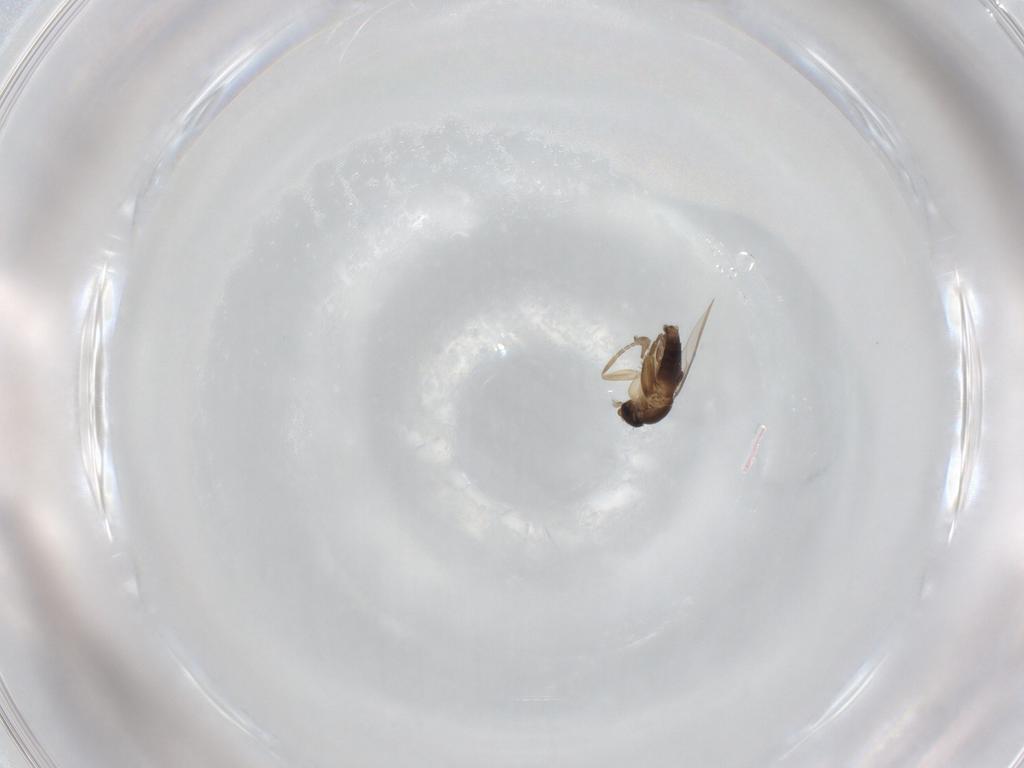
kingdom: Animalia
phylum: Arthropoda
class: Insecta
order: Diptera
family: Phoridae
